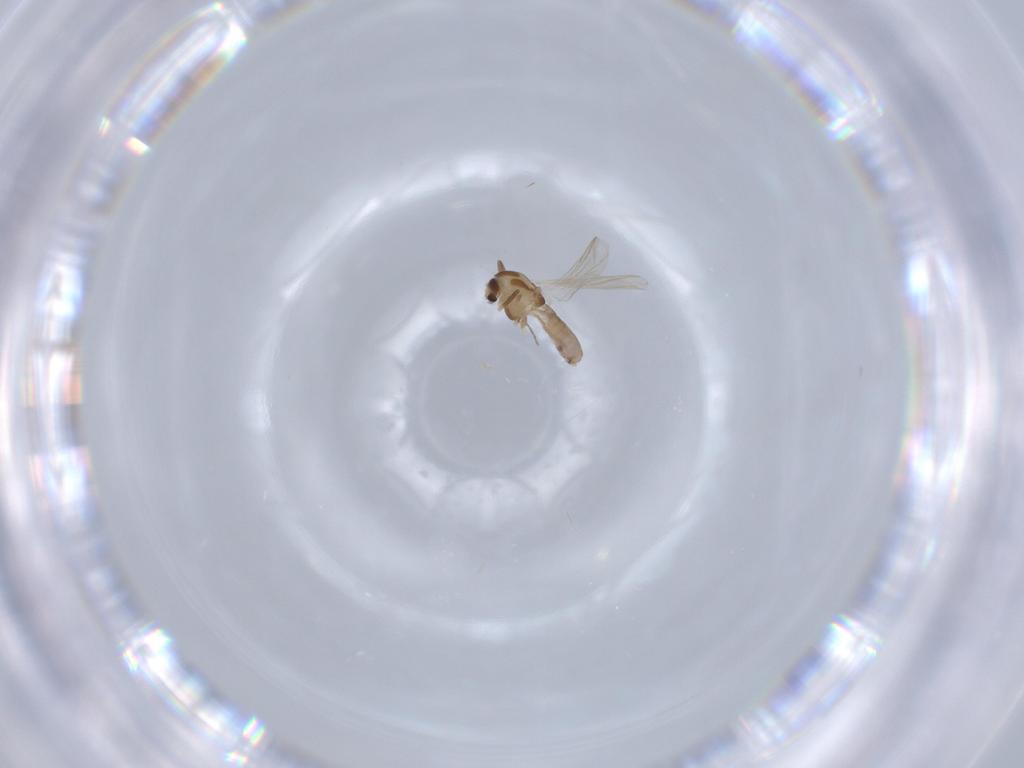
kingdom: Animalia
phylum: Arthropoda
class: Insecta
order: Diptera
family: Chironomidae
